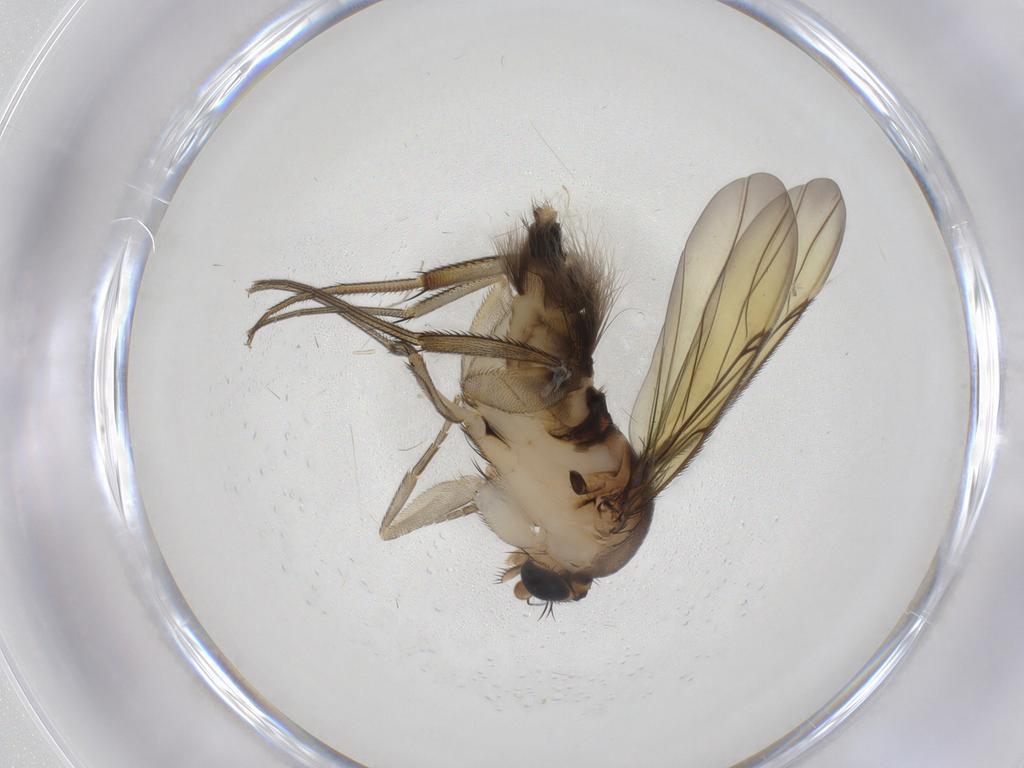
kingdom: Animalia
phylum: Arthropoda
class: Insecta
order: Diptera
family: Phoridae
